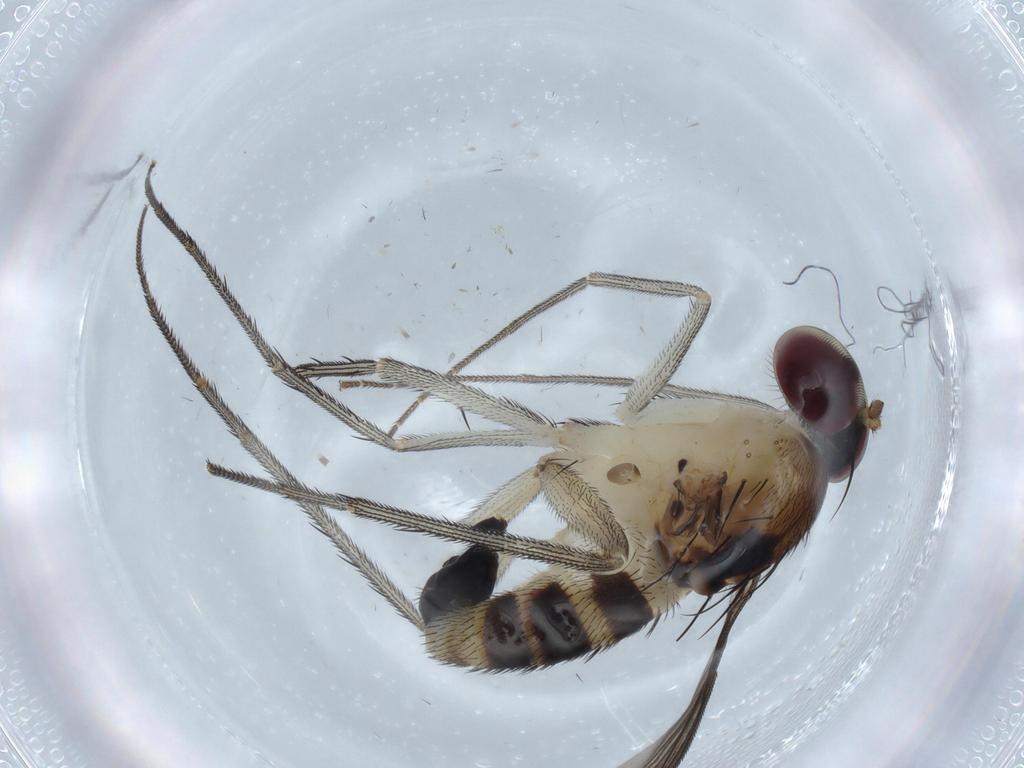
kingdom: Animalia
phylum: Arthropoda
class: Insecta
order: Diptera
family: Dolichopodidae
